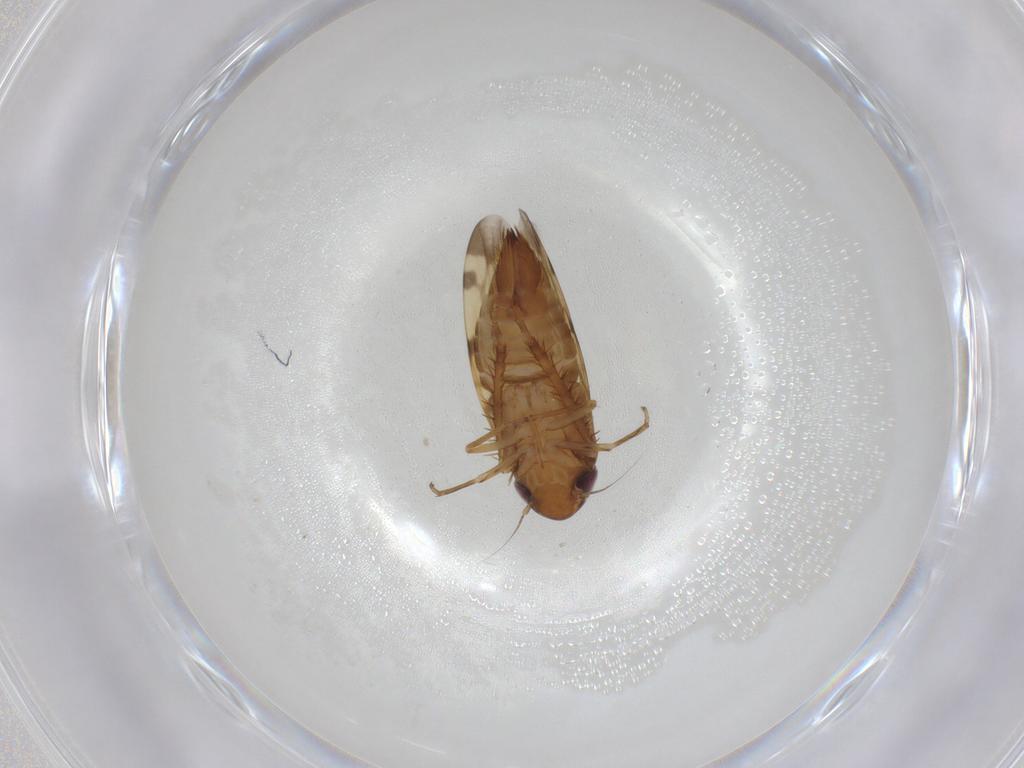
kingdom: Animalia
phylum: Arthropoda
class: Insecta
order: Hemiptera
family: Cicadellidae
